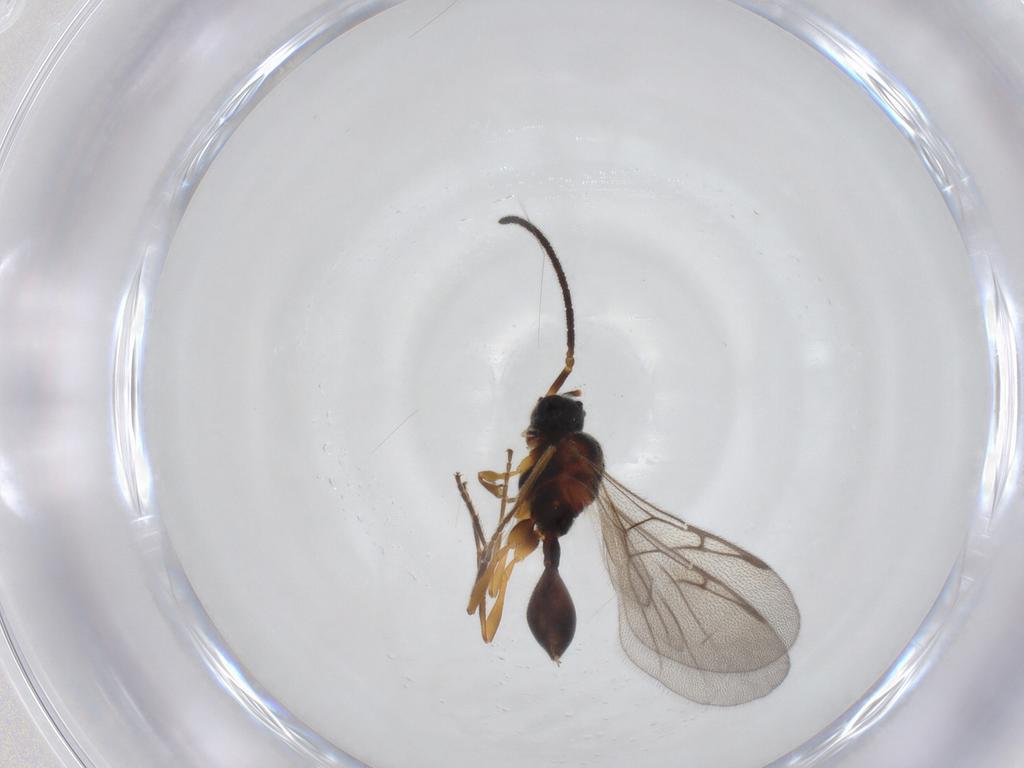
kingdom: Animalia
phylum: Arthropoda
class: Insecta
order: Hymenoptera
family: Diapriidae
